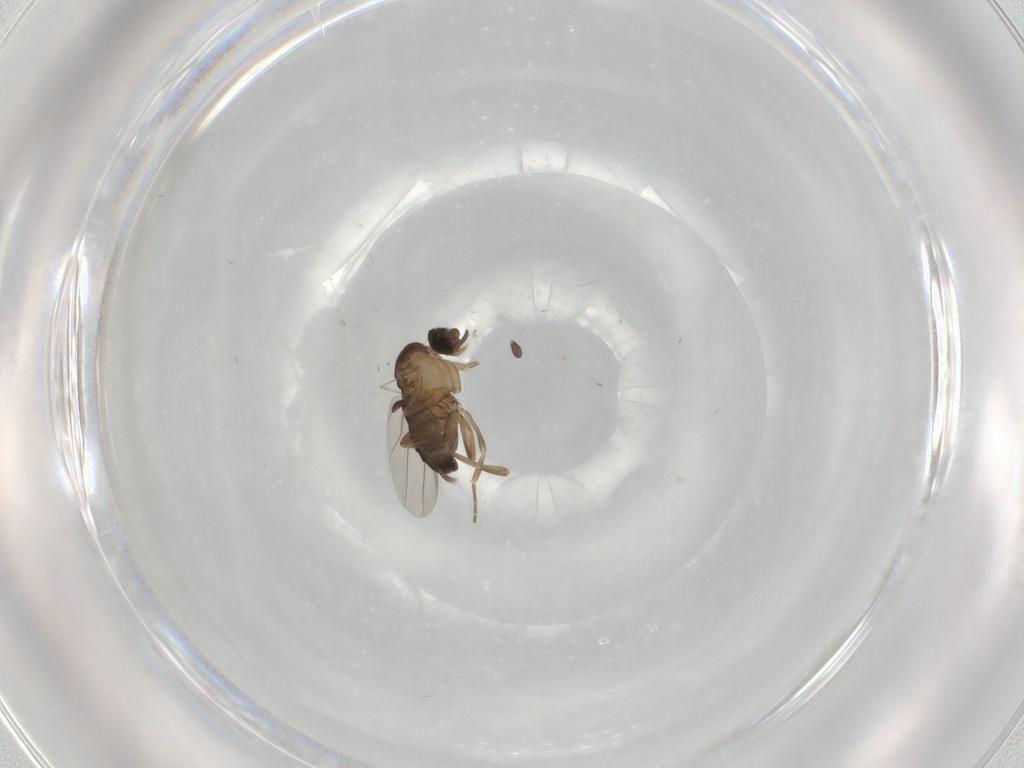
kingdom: Animalia
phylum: Arthropoda
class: Insecta
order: Diptera
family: Phoridae
